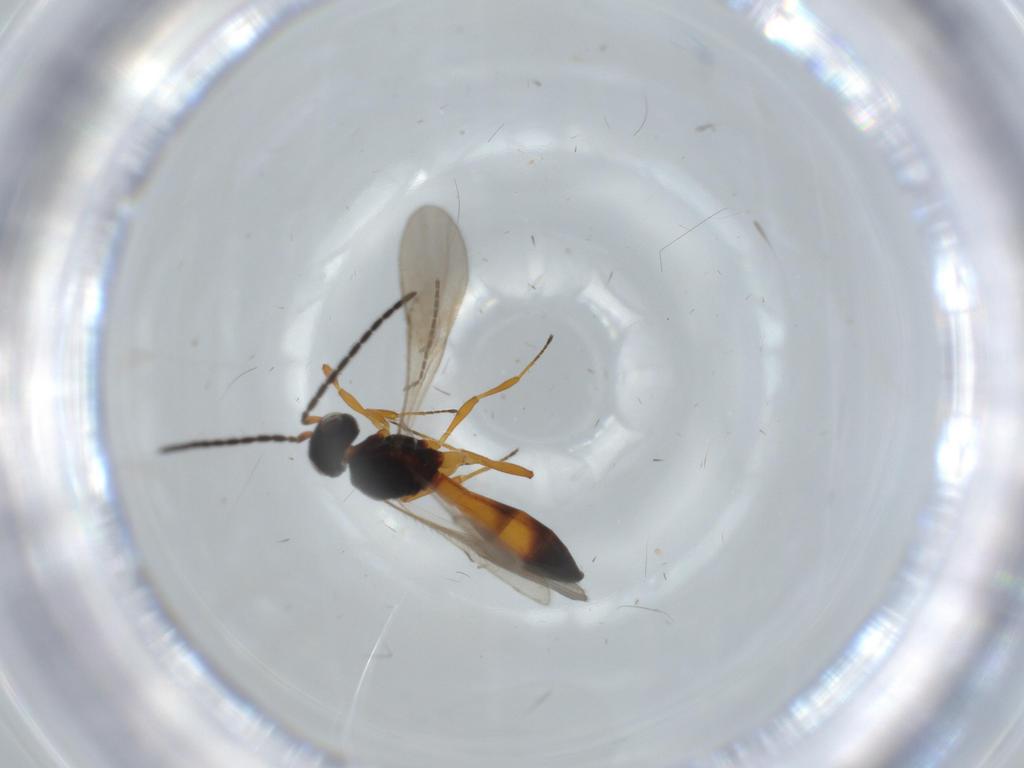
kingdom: Animalia
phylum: Arthropoda
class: Insecta
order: Hymenoptera
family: Scelionidae
